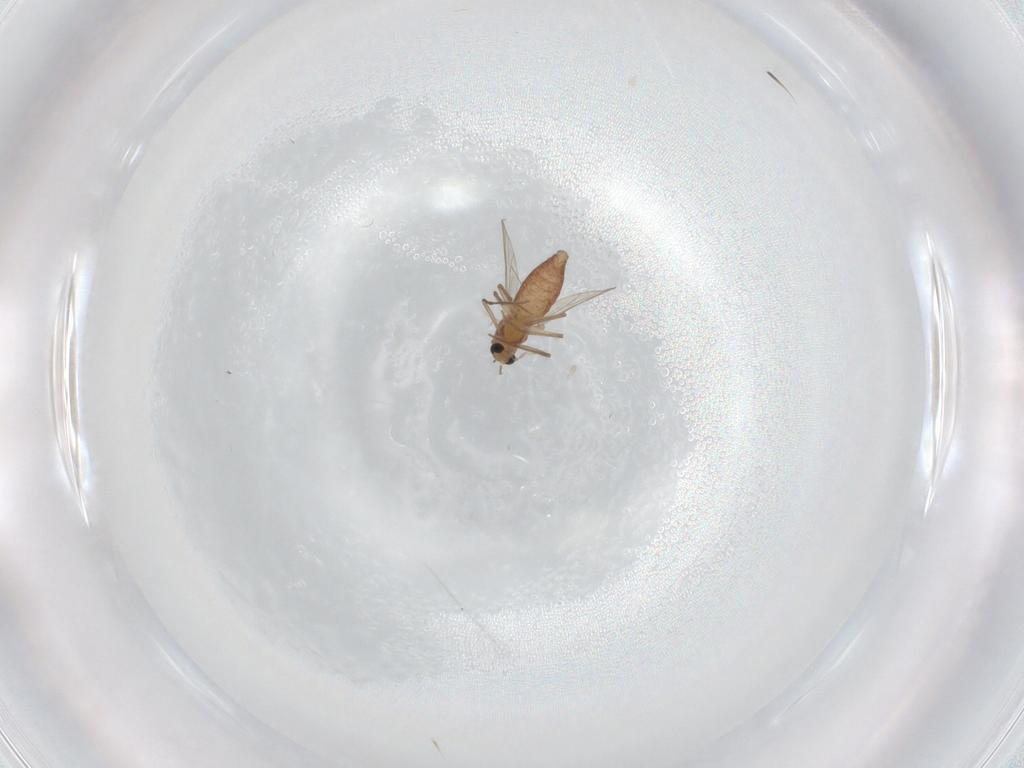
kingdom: Animalia
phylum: Arthropoda
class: Insecta
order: Diptera
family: Chironomidae
